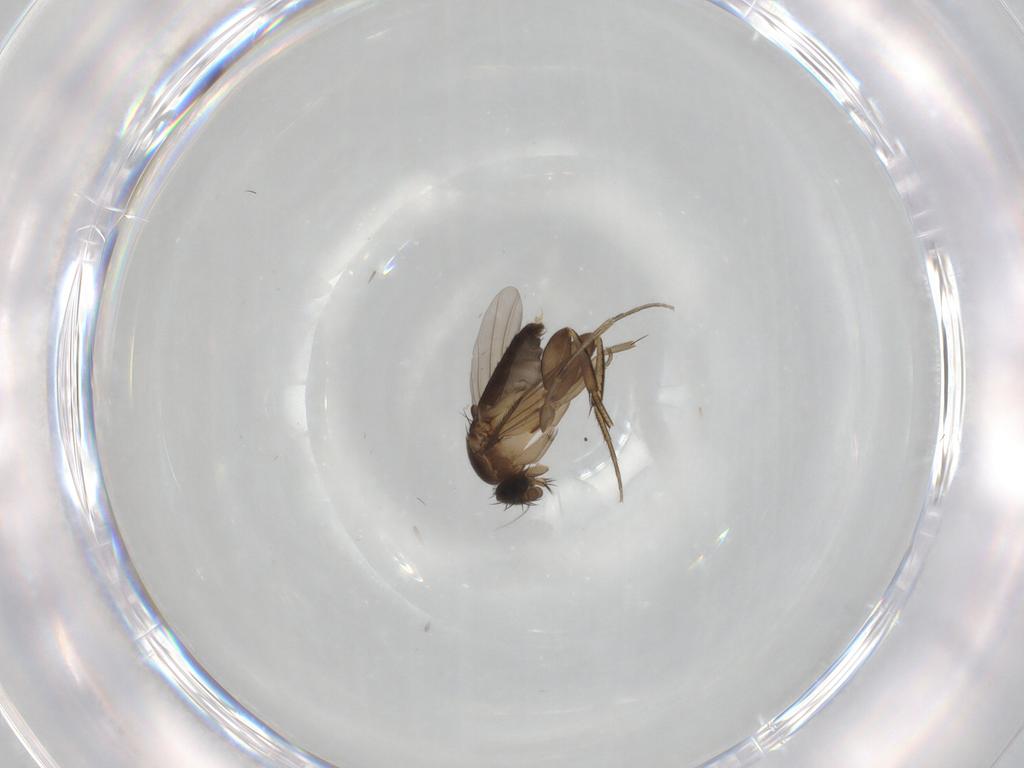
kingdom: Animalia
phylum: Arthropoda
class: Insecta
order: Diptera
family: Phoridae
